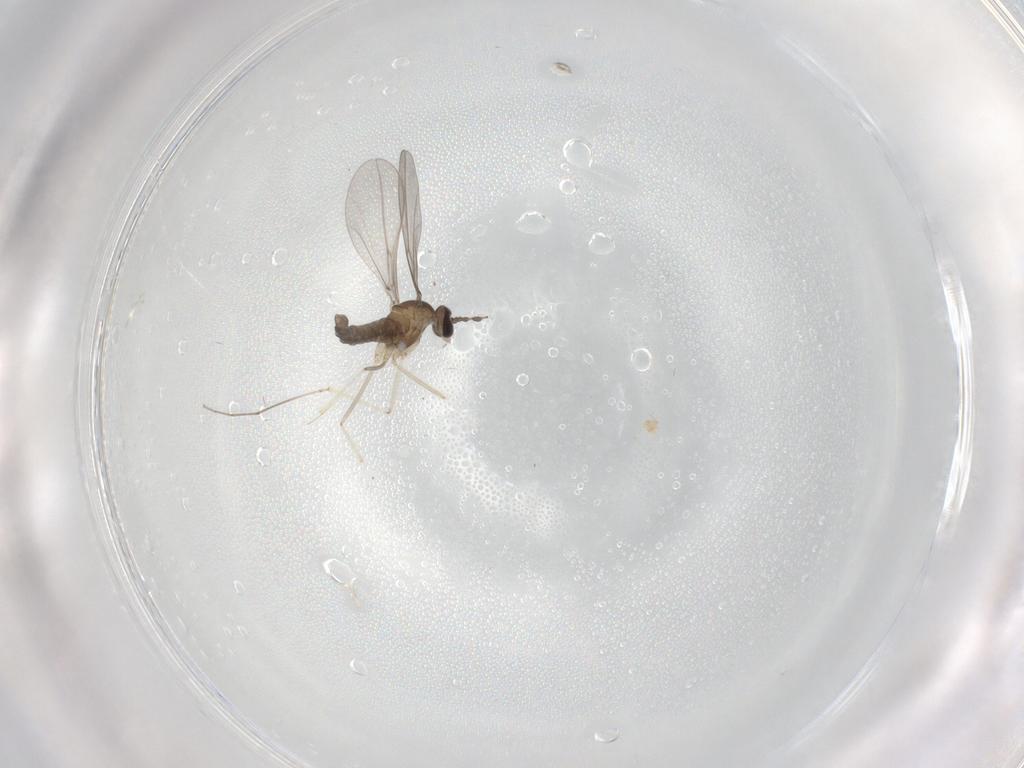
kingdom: Animalia
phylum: Arthropoda
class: Insecta
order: Diptera
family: Cecidomyiidae
